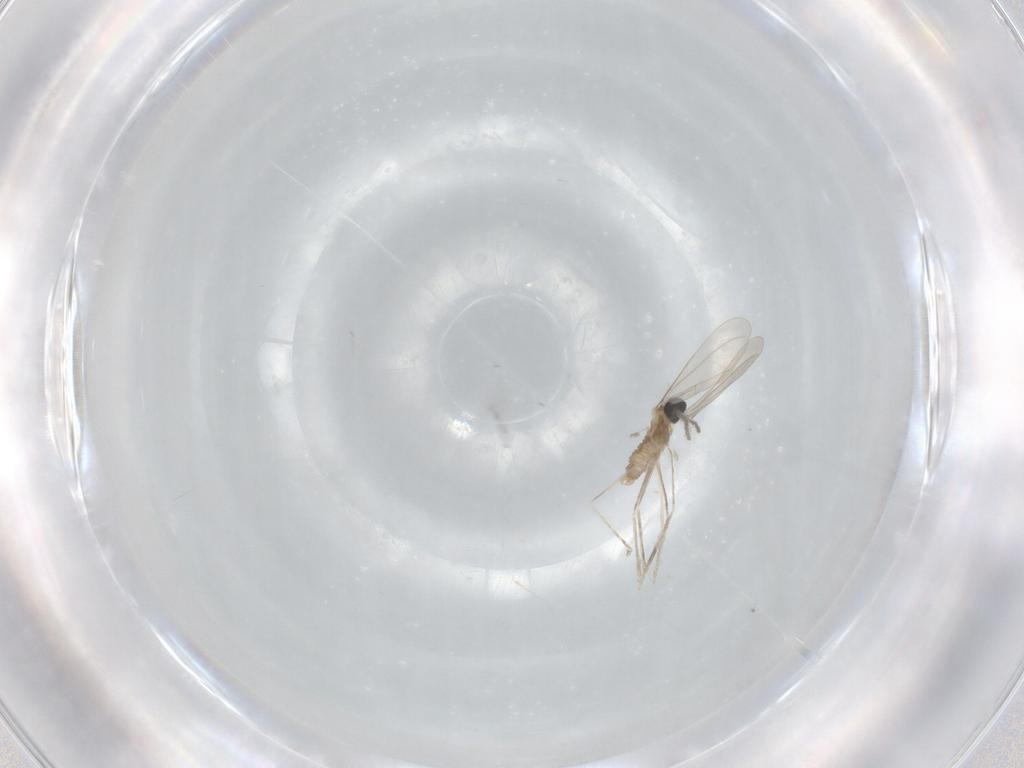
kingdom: Animalia
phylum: Arthropoda
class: Insecta
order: Diptera
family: Cecidomyiidae
